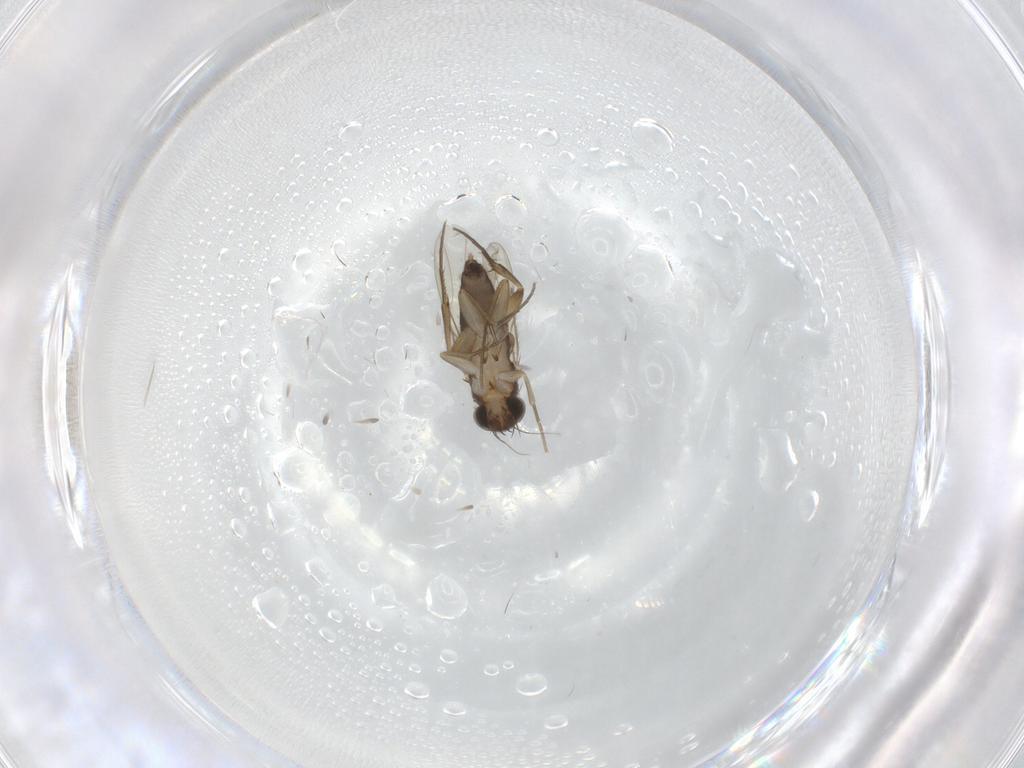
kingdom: Animalia
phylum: Arthropoda
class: Insecta
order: Diptera
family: Phoridae
